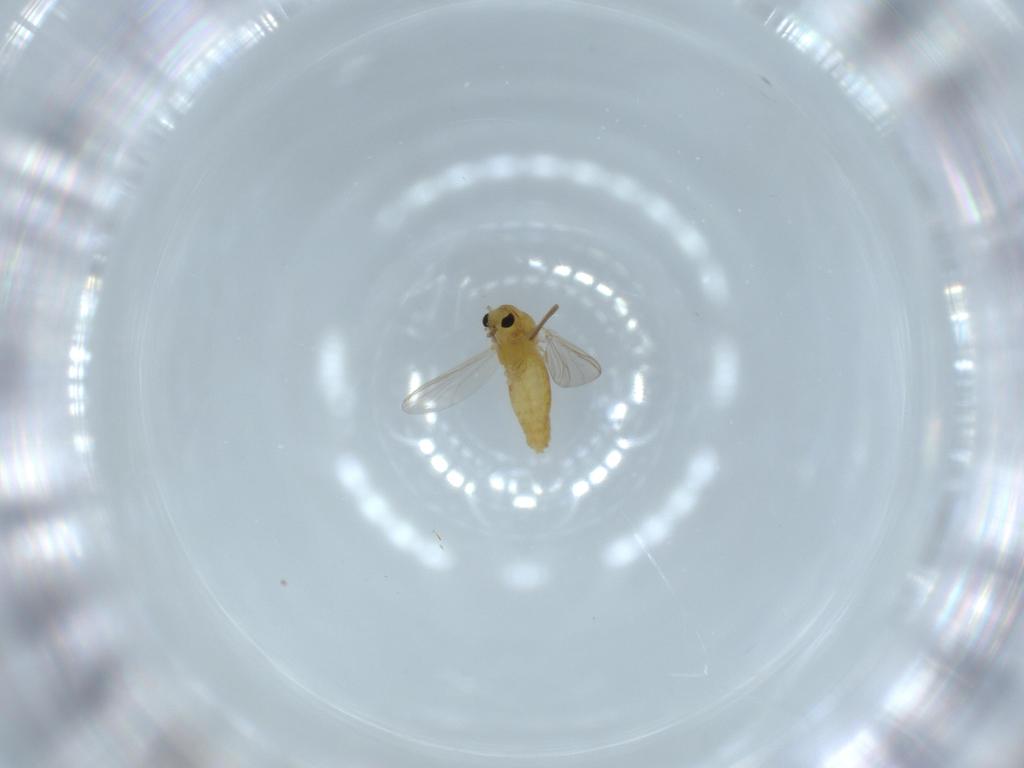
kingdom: Animalia
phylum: Arthropoda
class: Insecta
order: Diptera
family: Chironomidae
